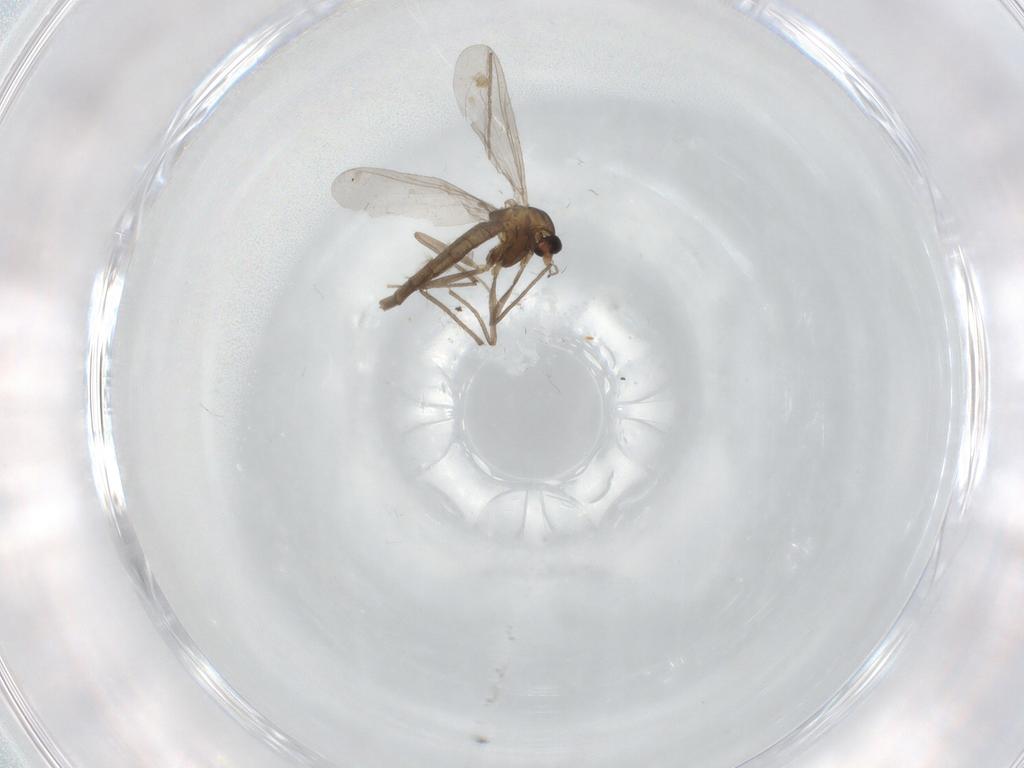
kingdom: Animalia
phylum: Arthropoda
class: Insecta
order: Diptera
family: Chironomidae
